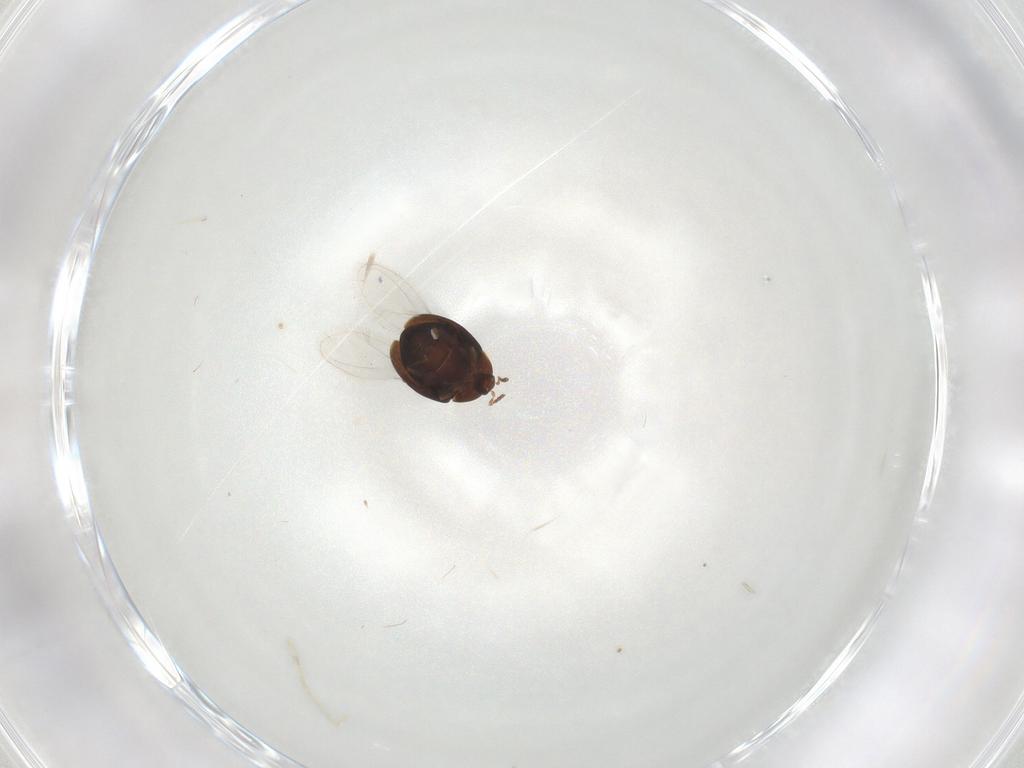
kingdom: Animalia
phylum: Arthropoda
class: Insecta
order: Coleoptera
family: Corylophidae
